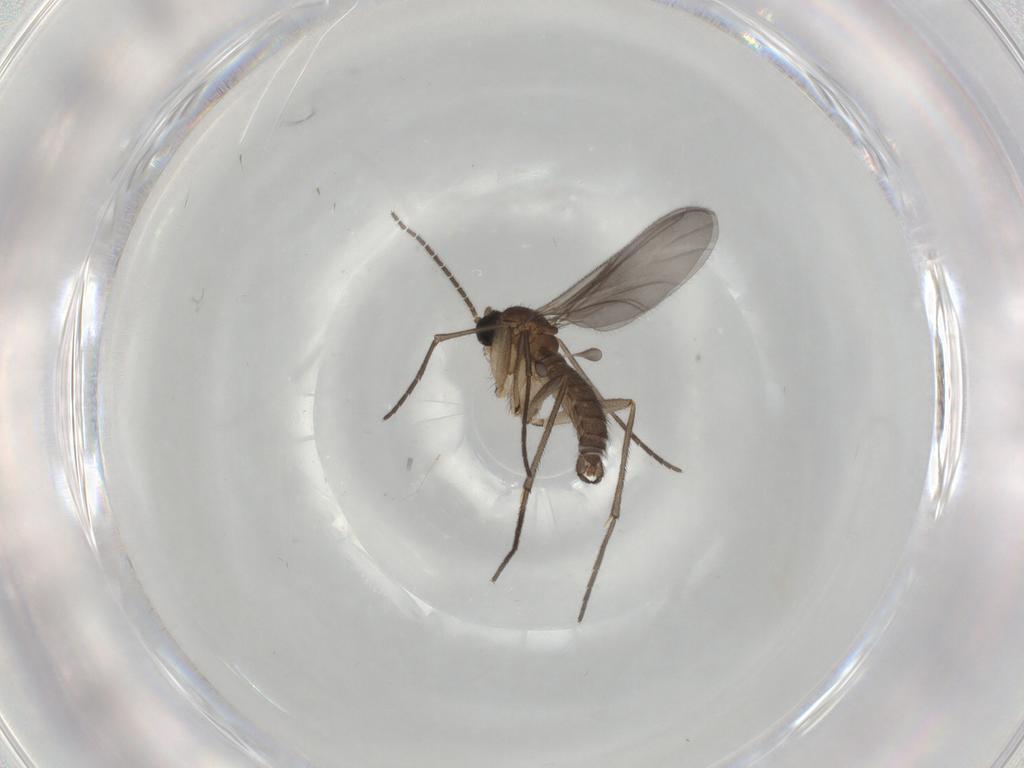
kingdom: Animalia
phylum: Arthropoda
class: Insecta
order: Diptera
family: Sciaridae
